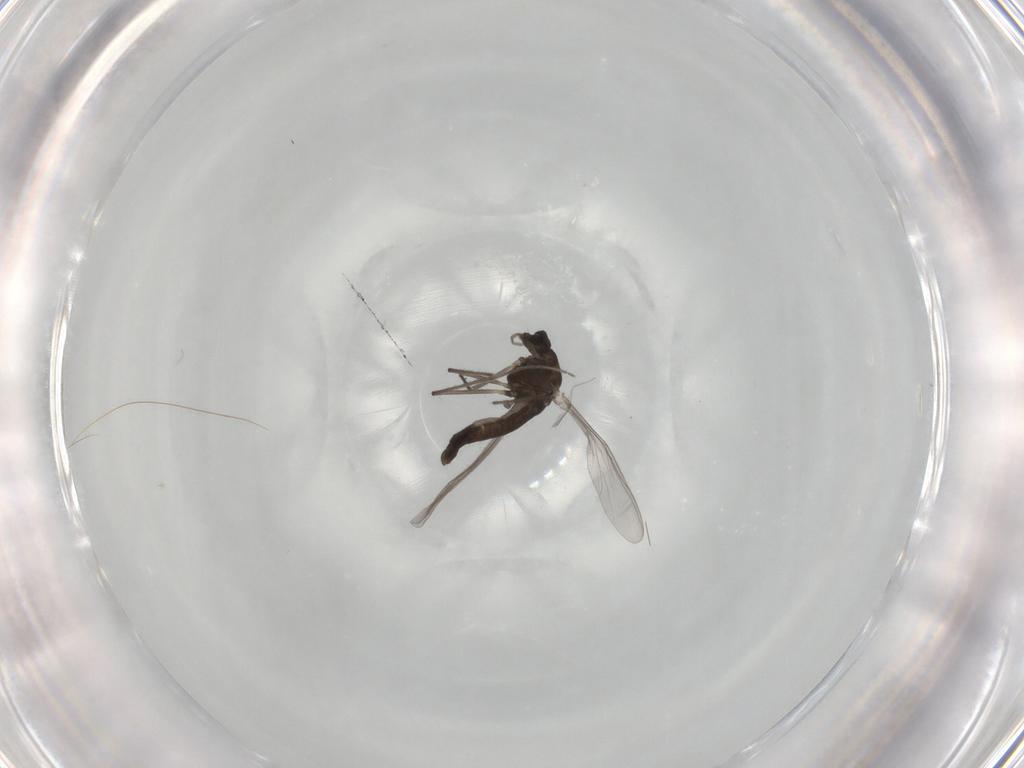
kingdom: Animalia
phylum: Arthropoda
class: Insecta
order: Diptera
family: Chironomidae
